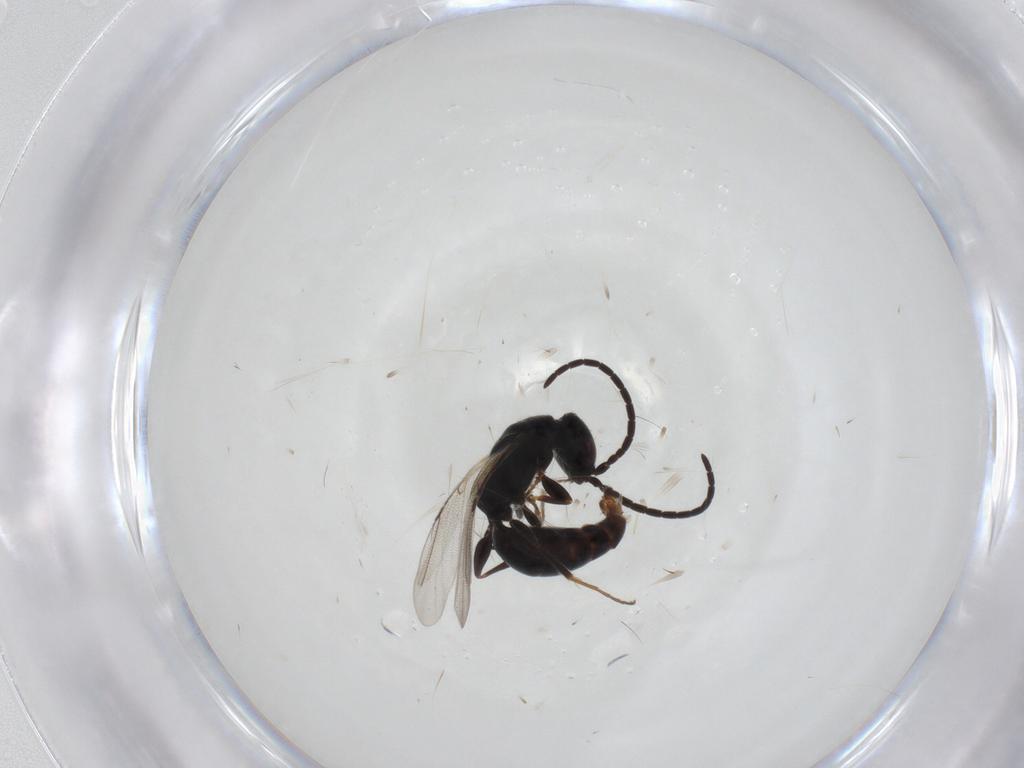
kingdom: Animalia
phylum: Arthropoda
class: Insecta
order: Hymenoptera
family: Bethylidae
